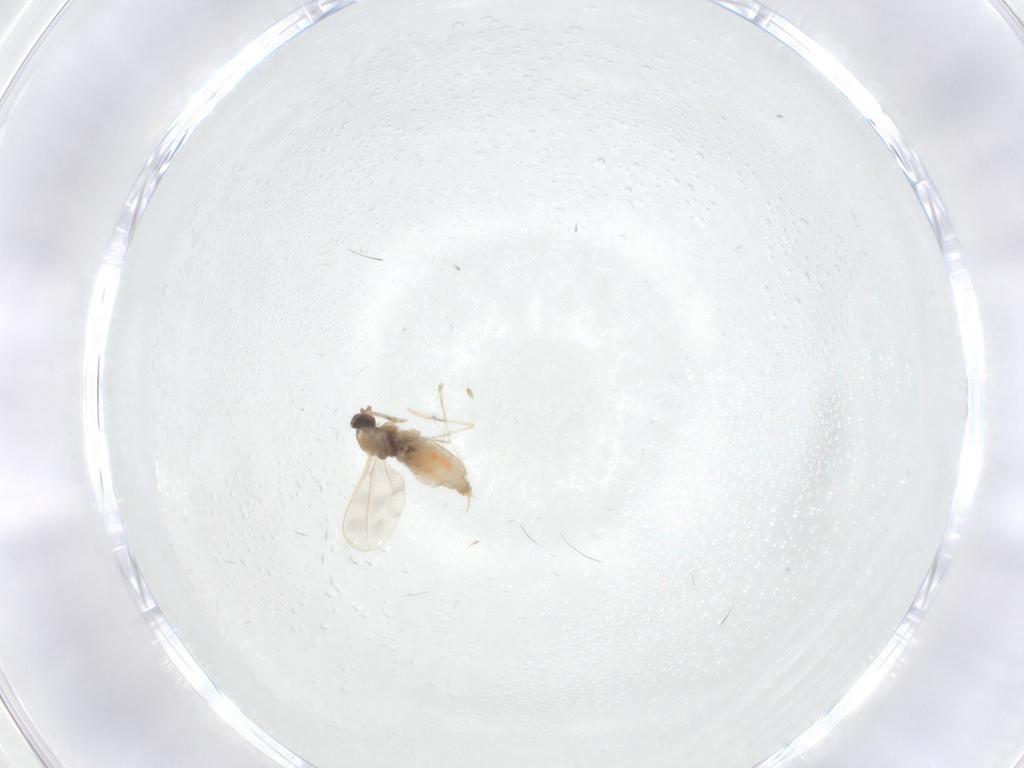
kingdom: Animalia
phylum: Arthropoda
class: Insecta
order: Diptera
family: Cecidomyiidae
